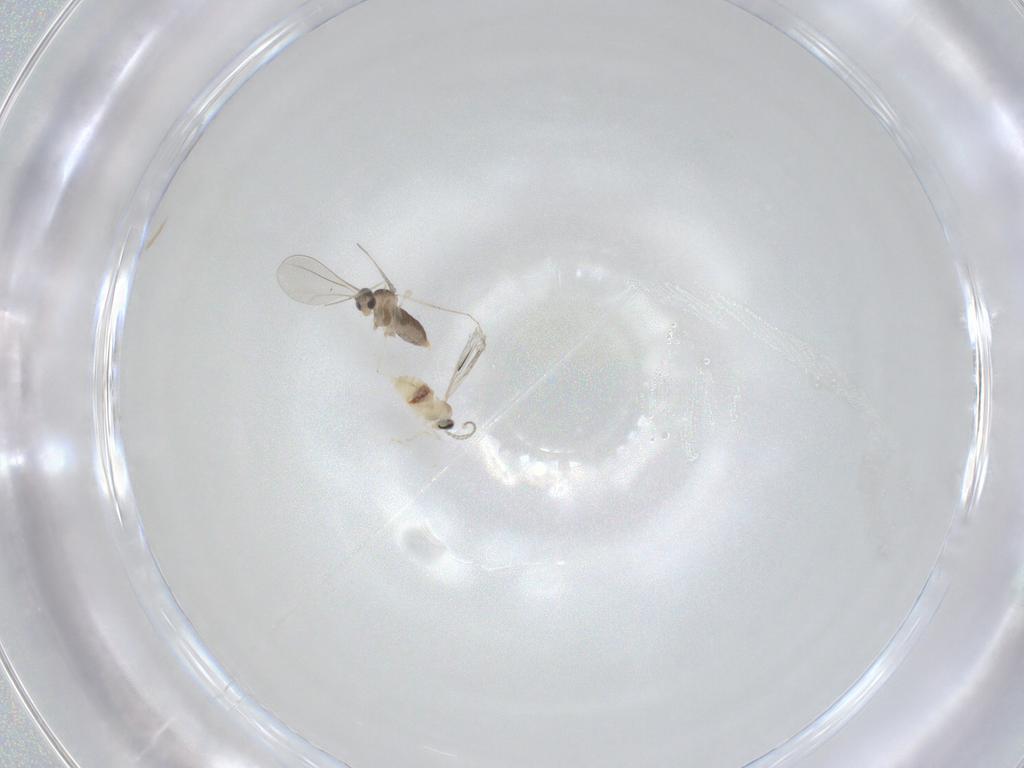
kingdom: Animalia
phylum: Arthropoda
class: Insecta
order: Diptera
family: Cecidomyiidae
